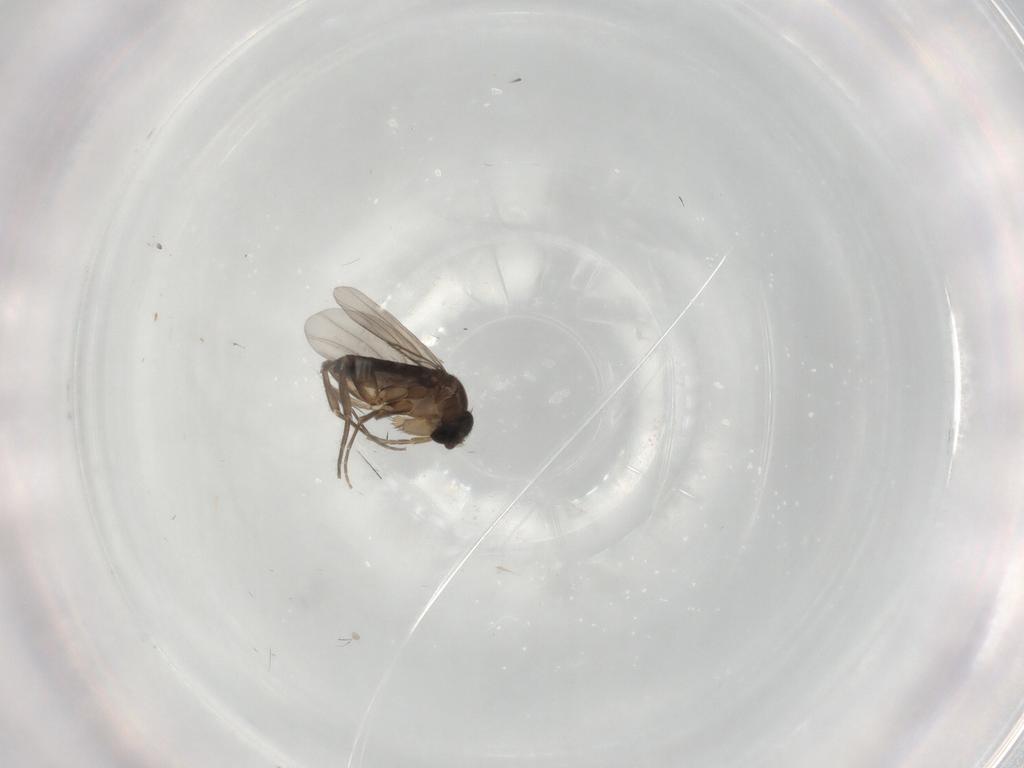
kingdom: Animalia
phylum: Arthropoda
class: Insecta
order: Diptera
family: Phoridae
